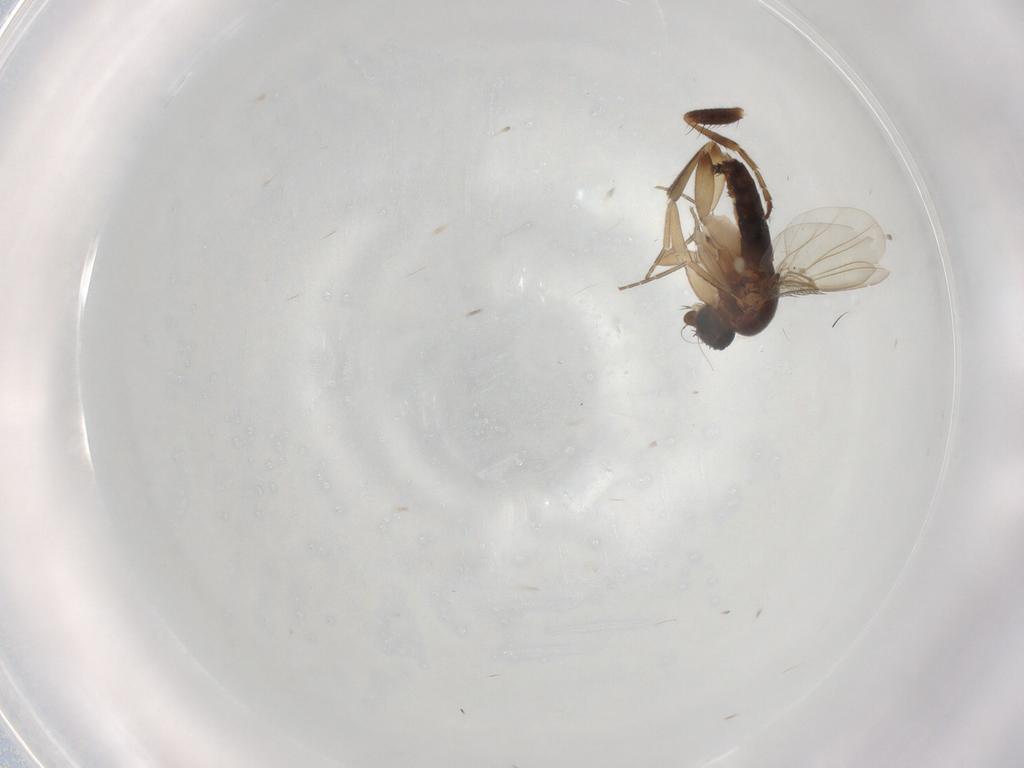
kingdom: Animalia
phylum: Arthropoda
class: Insecta
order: Diptera
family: Phoridae
